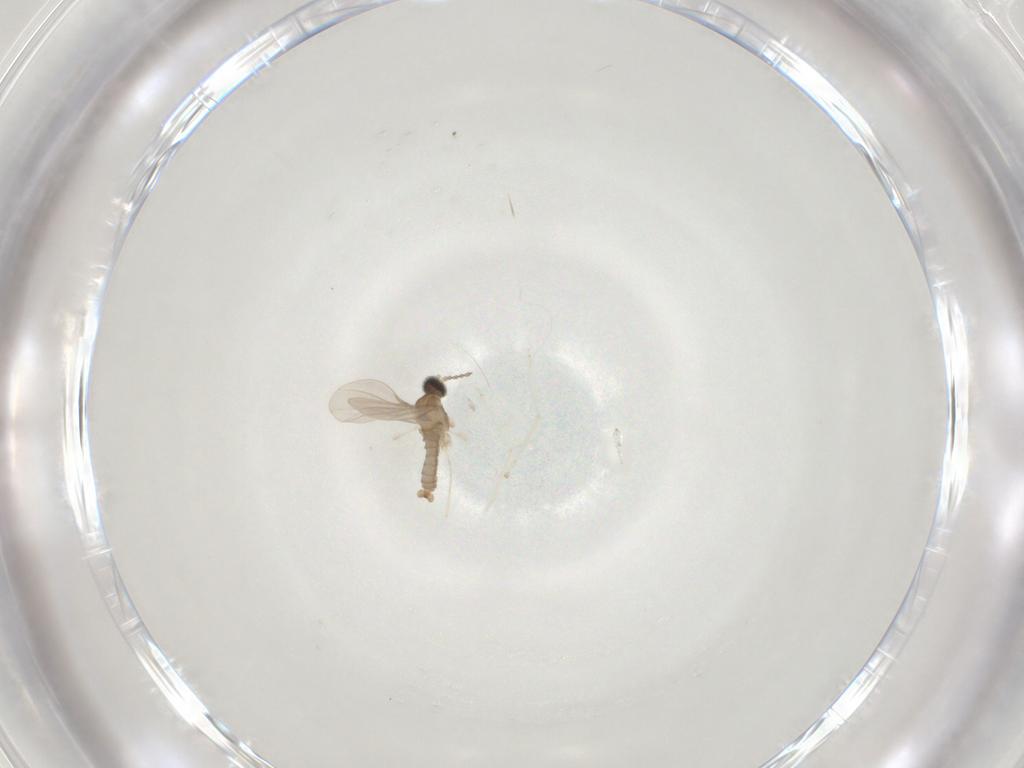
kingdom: Animalia
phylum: Arthropoda
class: Insecta
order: Diptera
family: Cecidomyiidae
